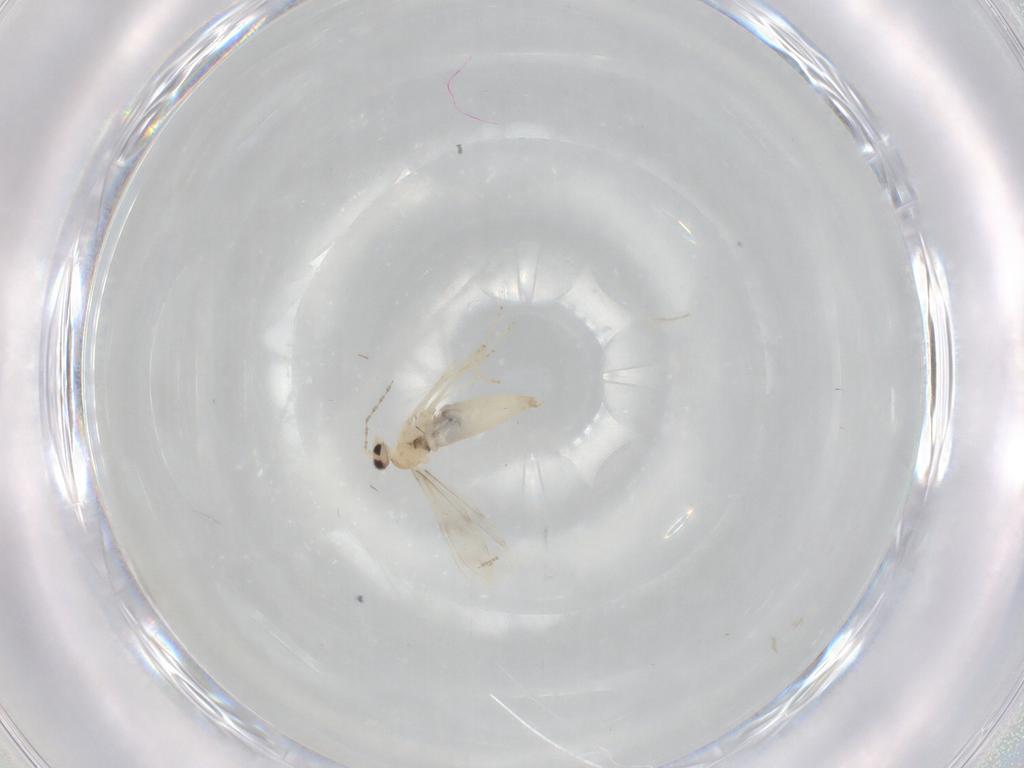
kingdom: Animalia
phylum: Arthropoda
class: Insecta
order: Diptera
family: Cecidomyiidae
